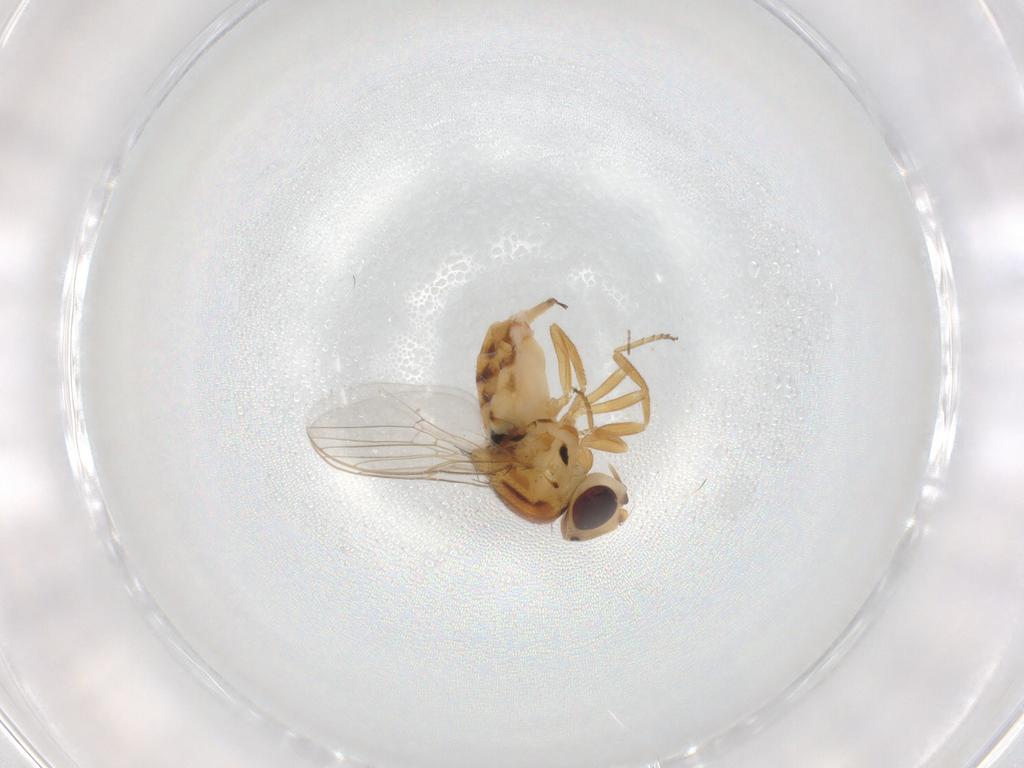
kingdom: Animalia
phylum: Arthropoda
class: Insecta
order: Diptera
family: Chloropidae
